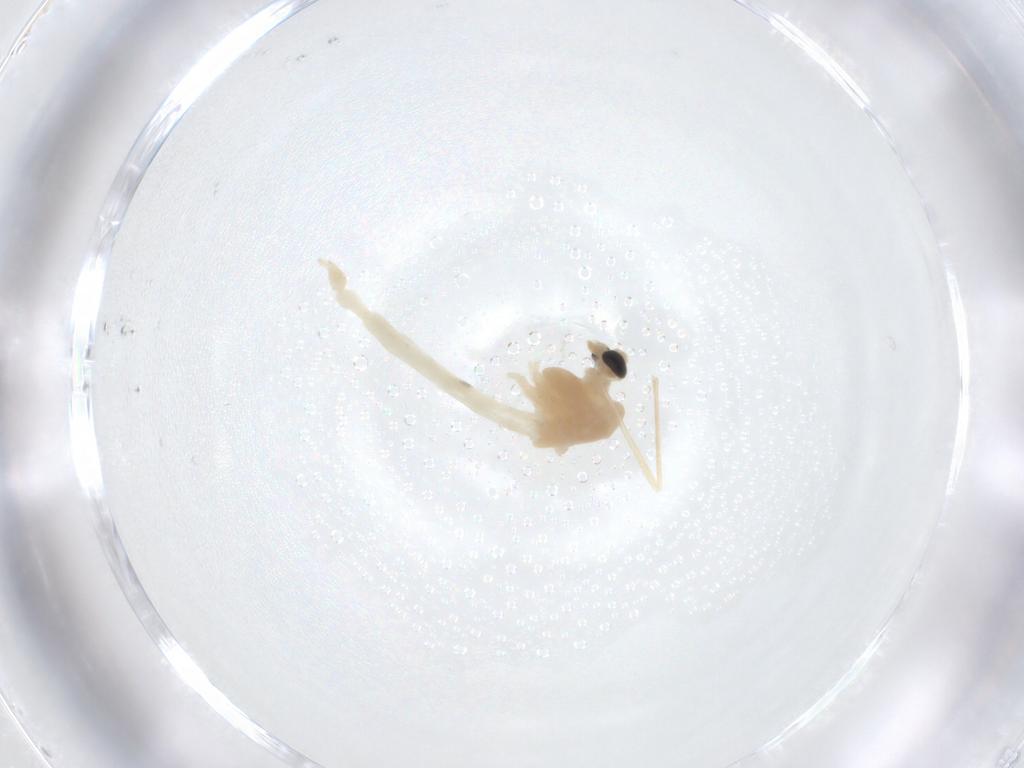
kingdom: Animalia
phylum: Arthropoda
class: Insecta
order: Diptera
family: Chironomidae
